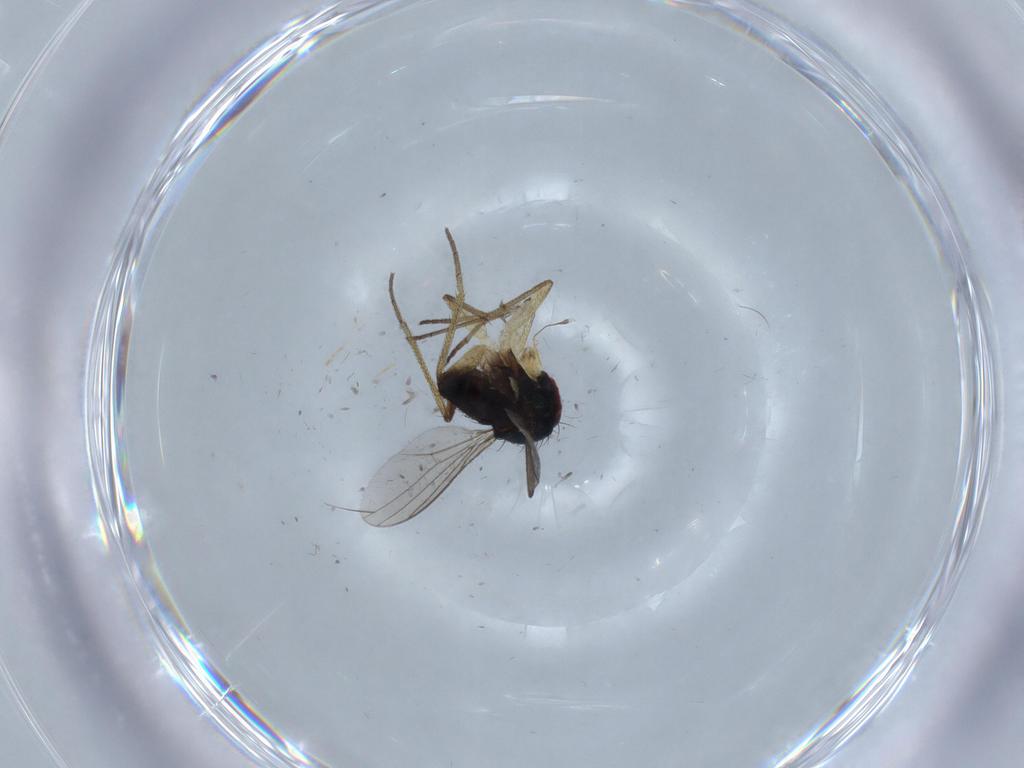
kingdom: Animalia
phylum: Arthropoda
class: Insecta
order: Diptera
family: Dolichopodidae
